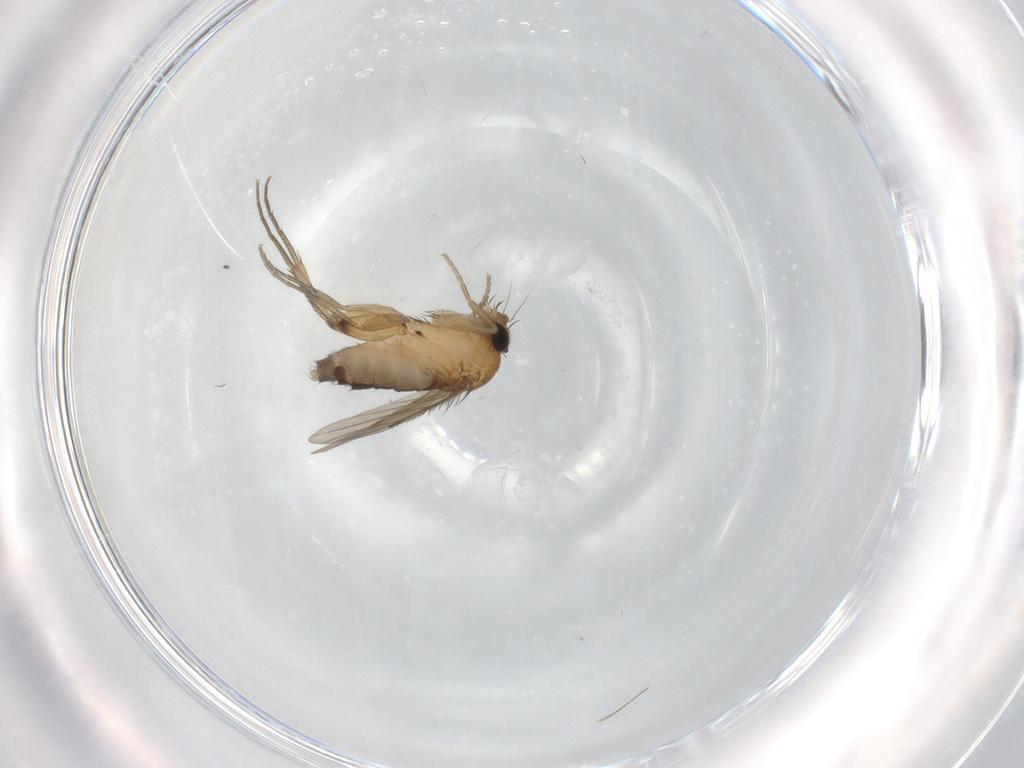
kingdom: Animalia
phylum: Arthropoda
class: Insecta
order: Diptera
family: Dolichopodidae
